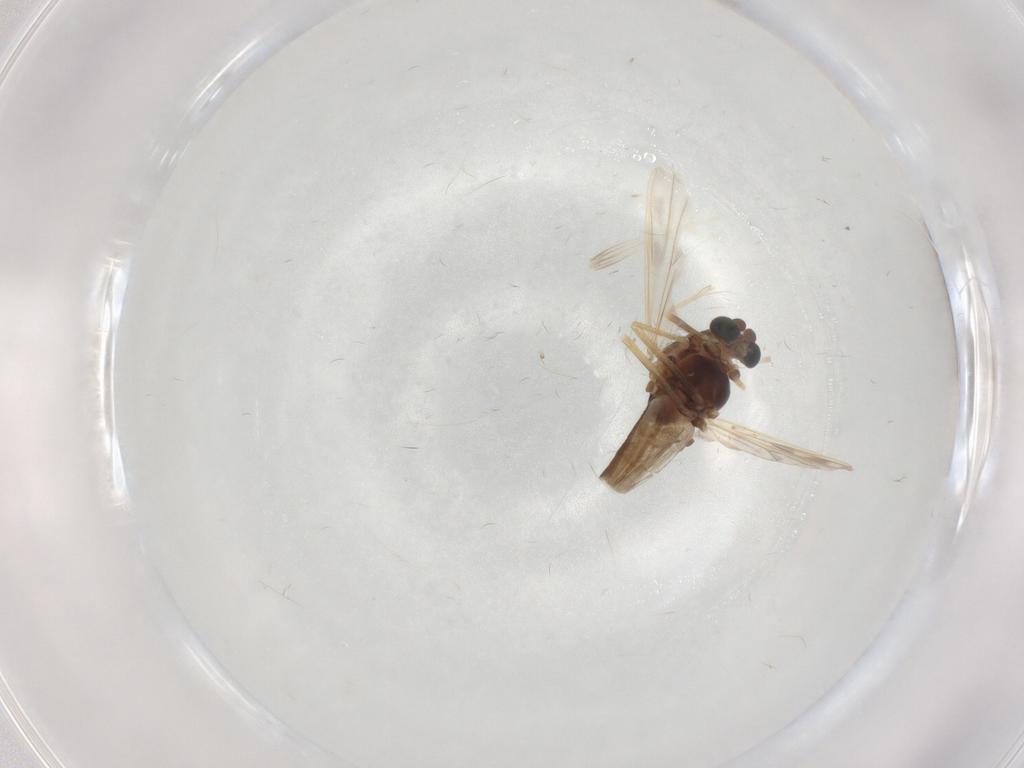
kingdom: Animalia
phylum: Arthropoda
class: Insecta
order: Diptera
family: Chironomidae
